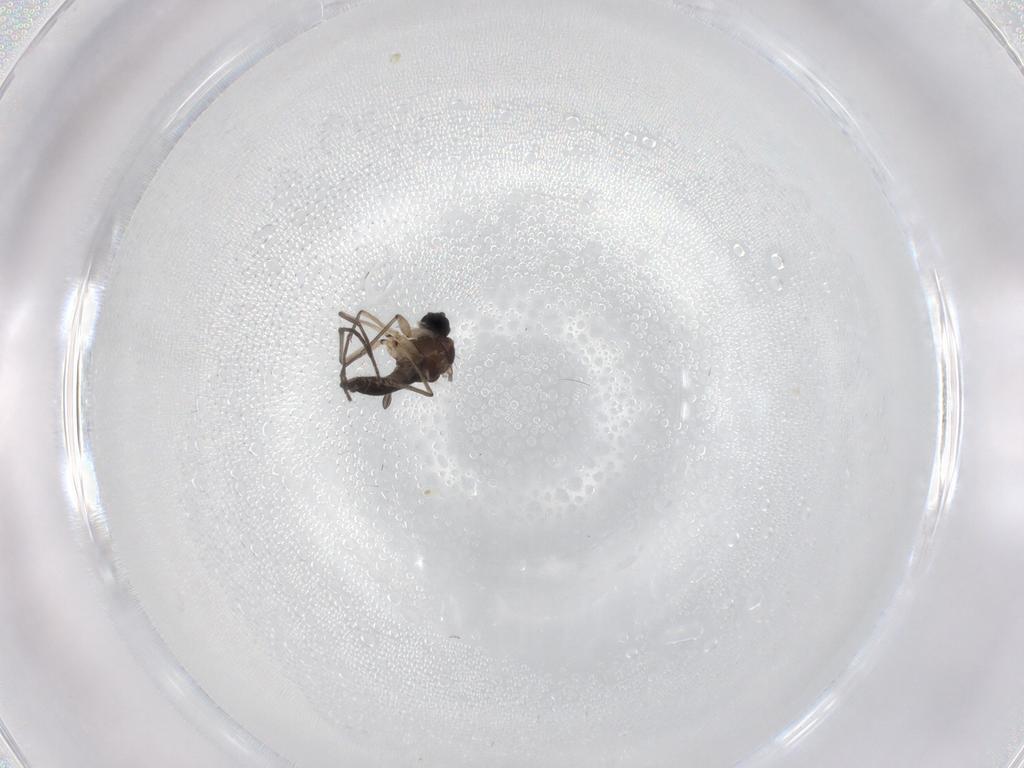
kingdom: Animalia
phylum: Arthropoda
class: Insecta
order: Diptera
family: Sciaridae
